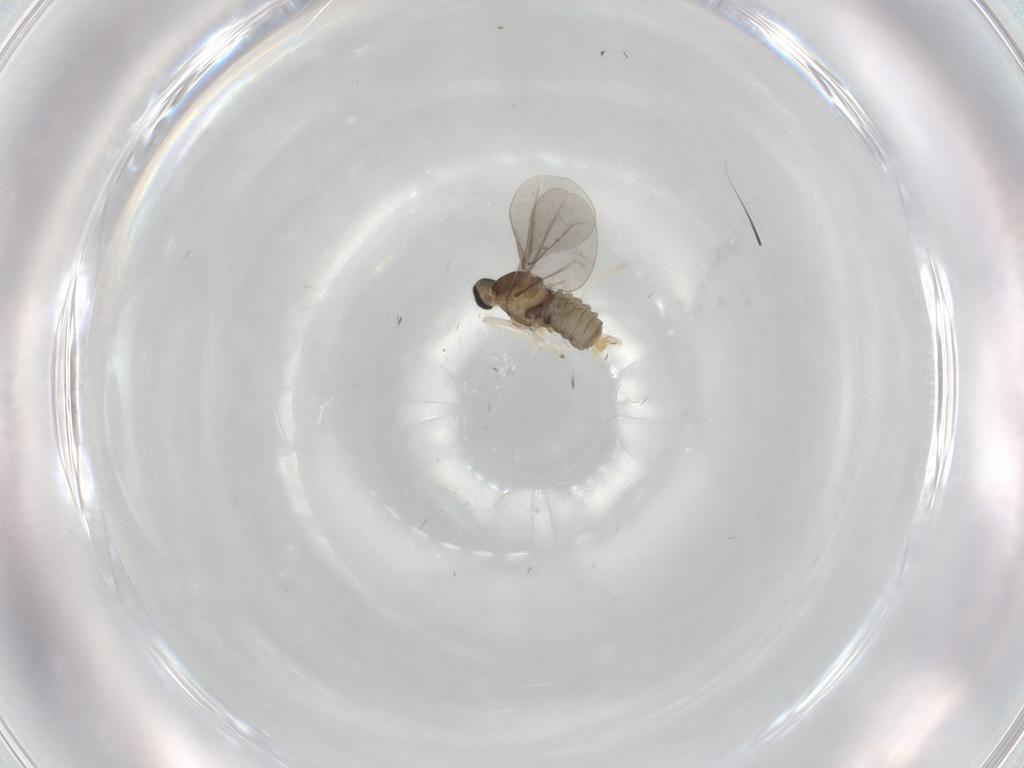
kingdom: Animalia
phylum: Arthropoda
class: Insecta
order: Diptera
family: Cecidomyiidae
